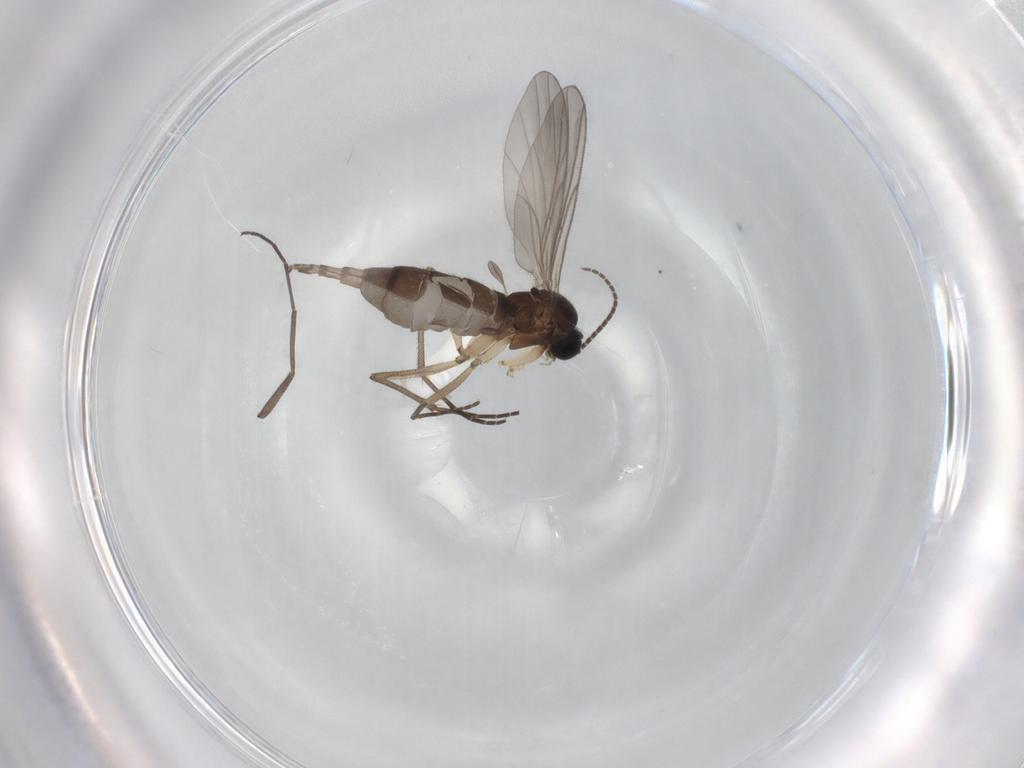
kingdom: Animalia
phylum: Arthropoda
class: Insecta
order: Diptera
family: Sciaridae
